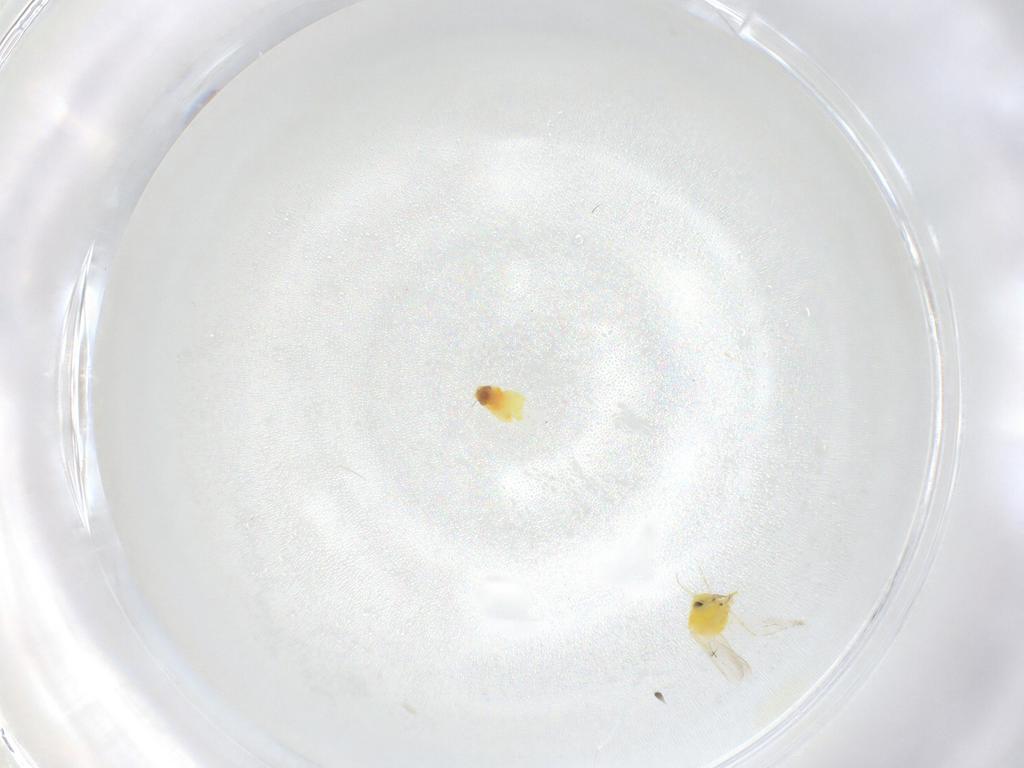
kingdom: Animalia
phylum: Arthropoda
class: Insecta
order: Hemiptera
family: Aleyrodidae
